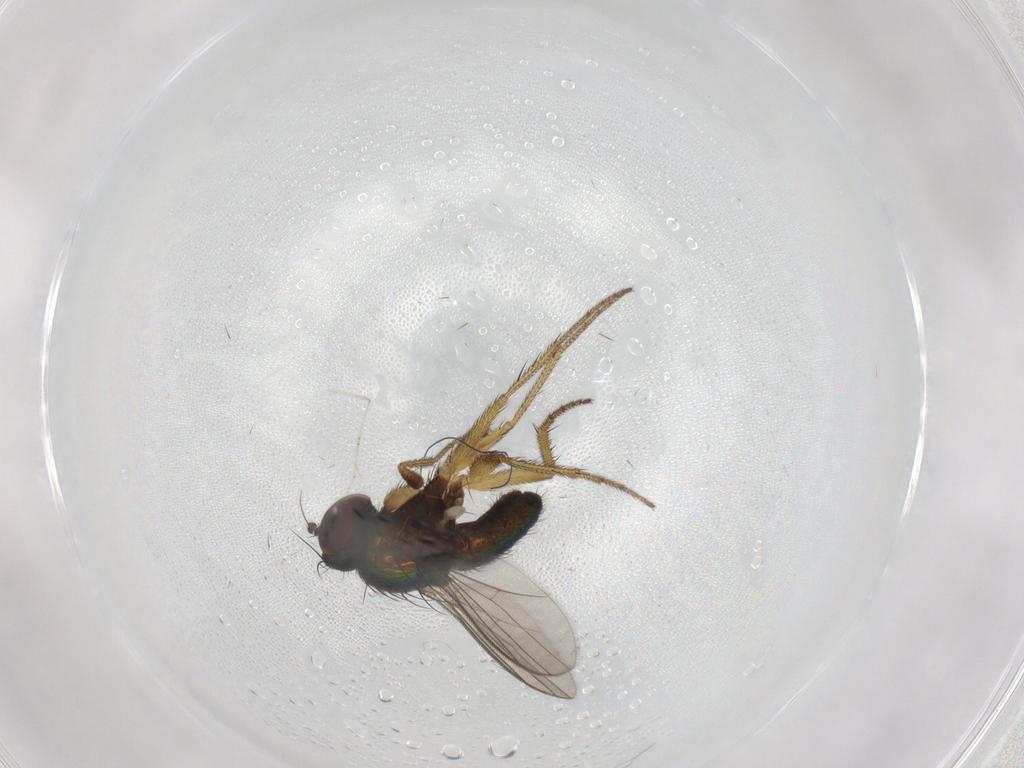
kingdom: Animalia
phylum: Arthropoda
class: Insecta
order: Diptera
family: Dolichopodidae
